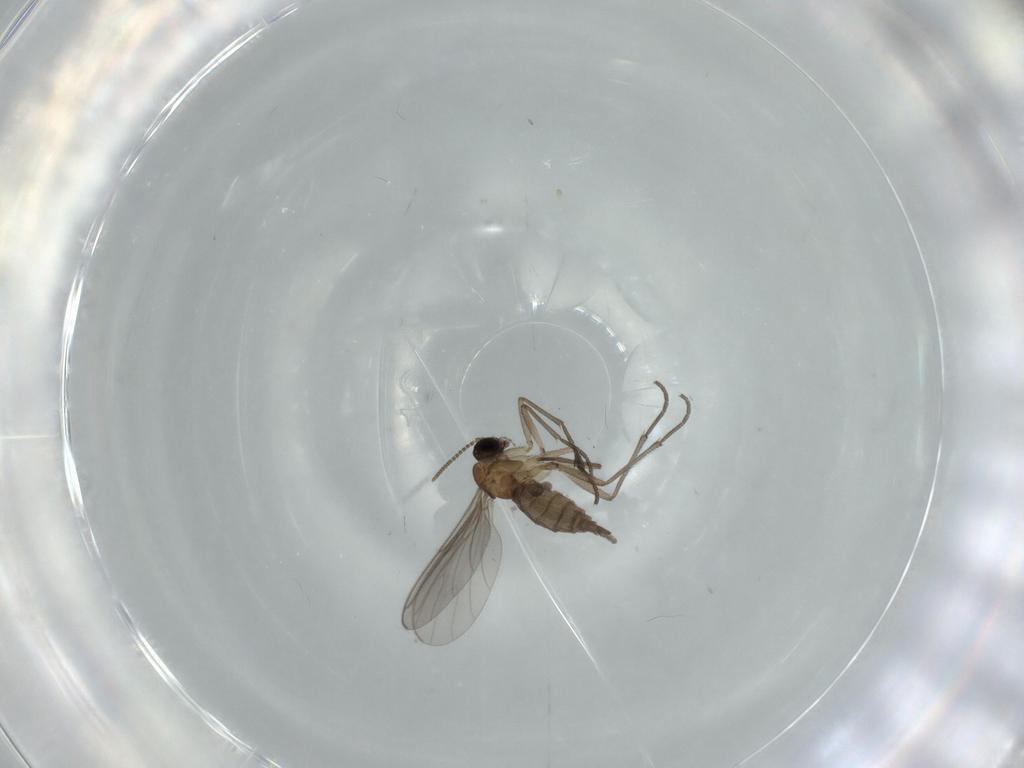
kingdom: Animalia
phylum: Arthropoda
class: Insecta
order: Diptera
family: Sciaridae
